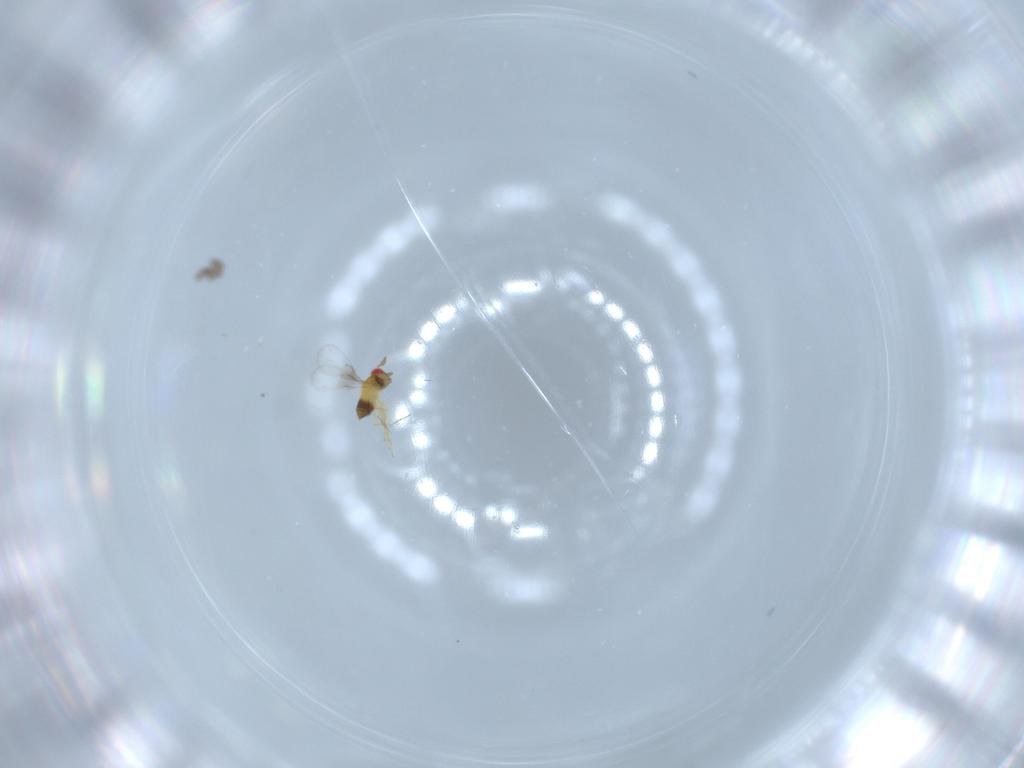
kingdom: Animalia
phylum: Arthropoda
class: Insecta
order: Hymenoptera
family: Trichogrammatidae
